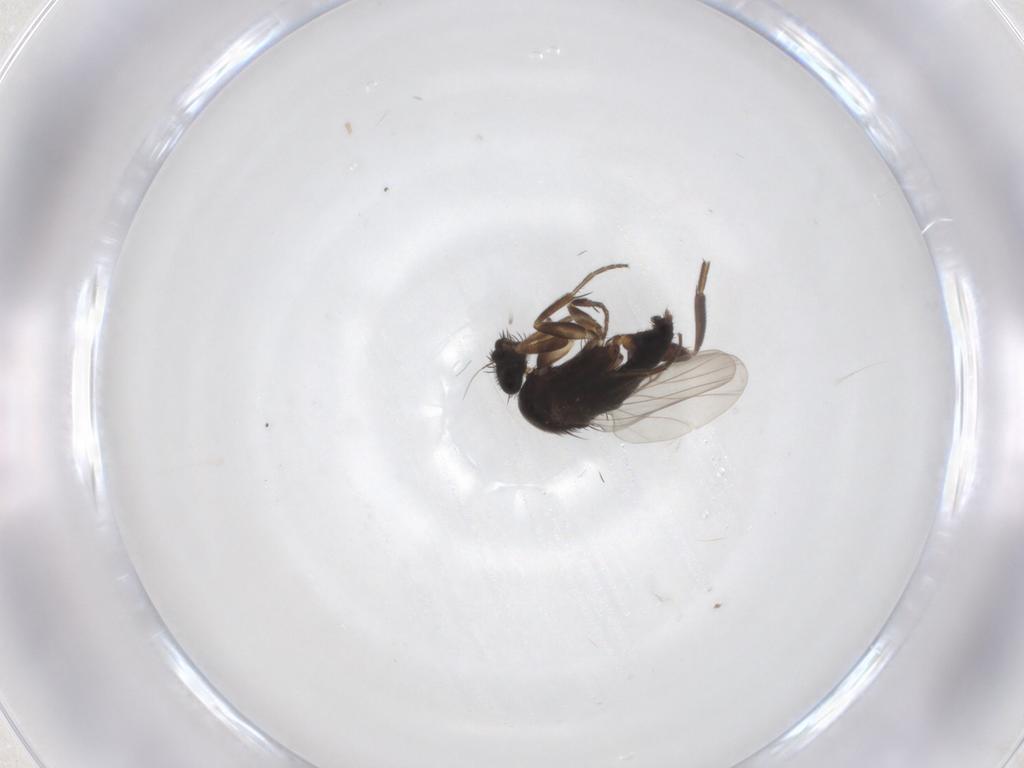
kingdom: Animalia
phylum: Arthropoda
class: Insecta
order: Diptera
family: Phoridae
